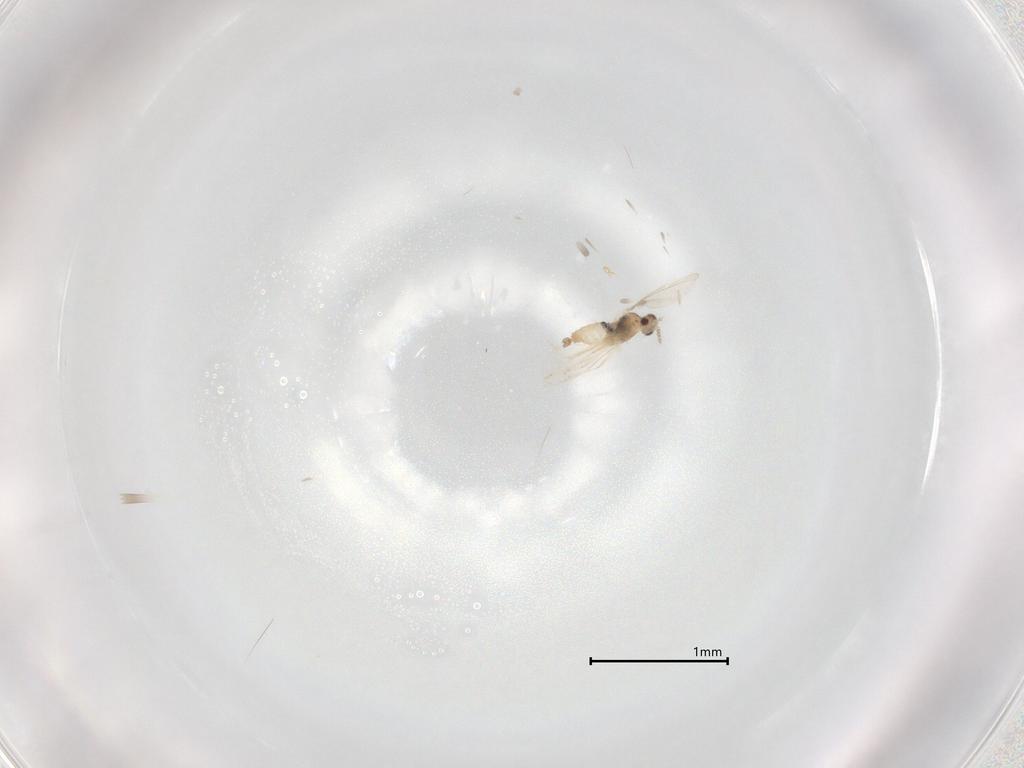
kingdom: Animalia
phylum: Arthropoda
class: Insecta
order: Diptera
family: Cecidomyiidae
